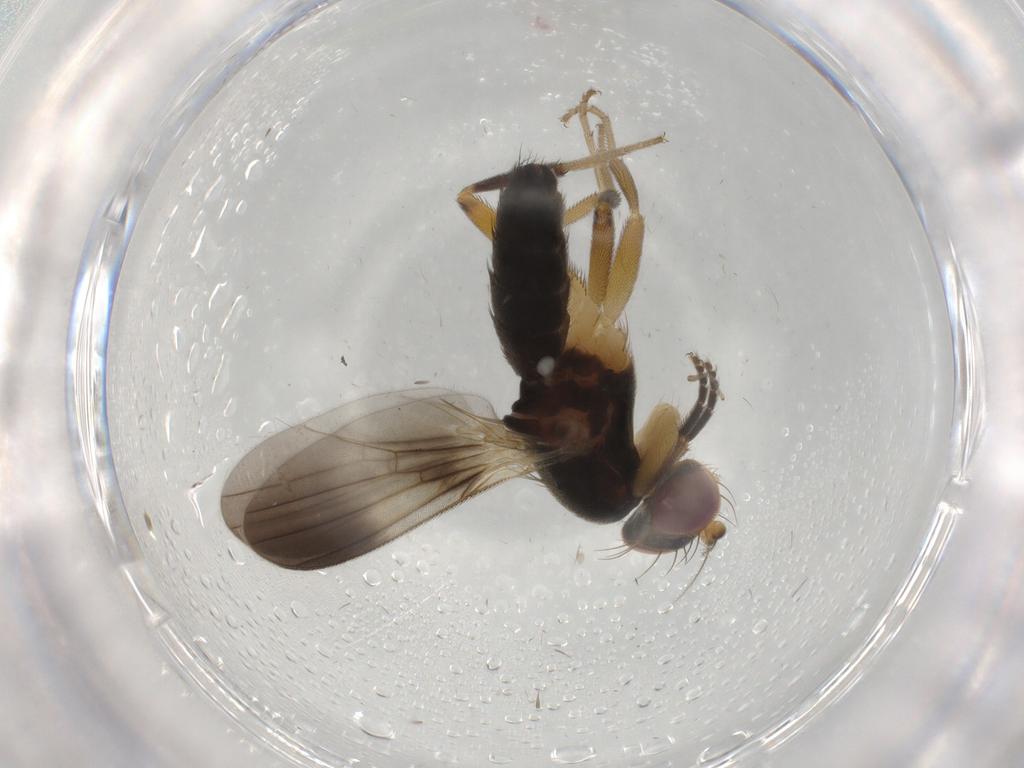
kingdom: Animalia
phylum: Arthropoda
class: Insecta
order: Diptera
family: Clusiidae
